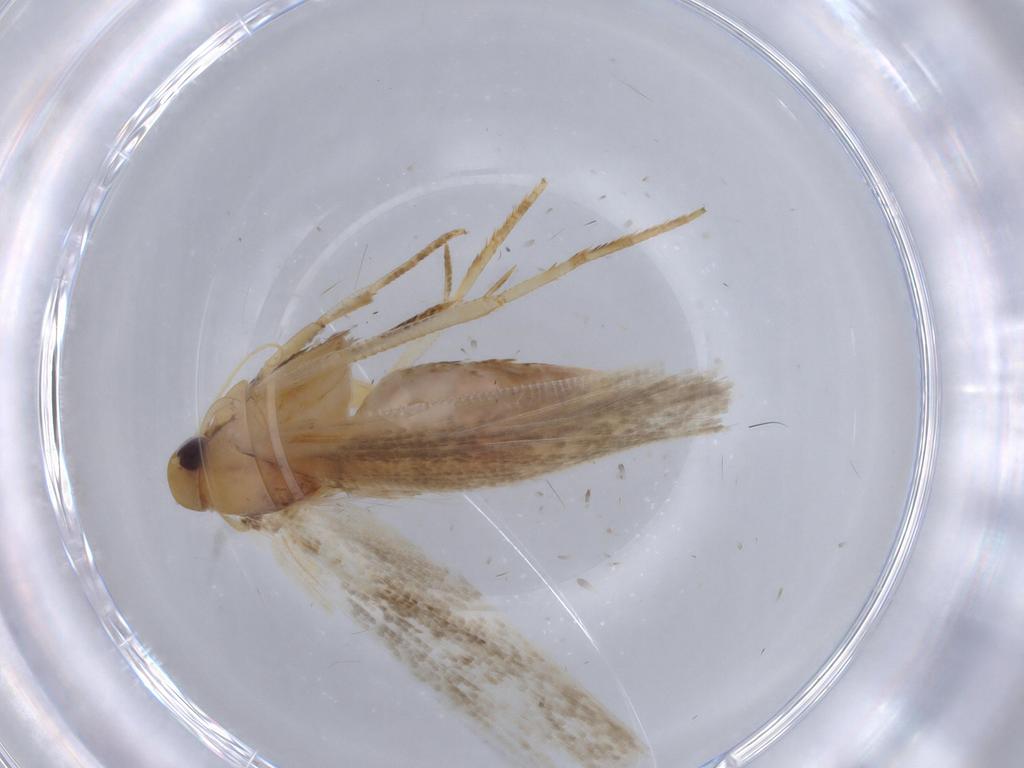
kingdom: Animalia
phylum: Arthropoda
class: Insecta
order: Lepidoptera
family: Cosmopterigidae
